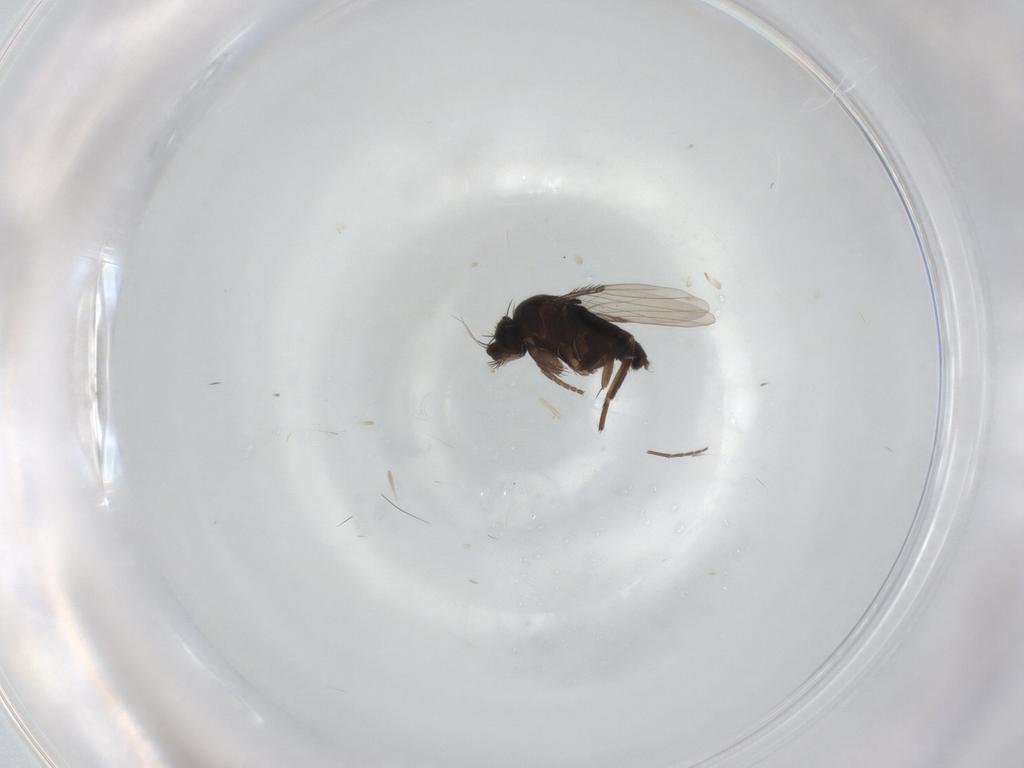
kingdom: Animalia
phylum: Arthropoda
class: Insecta
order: Diptera
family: Phoridae
